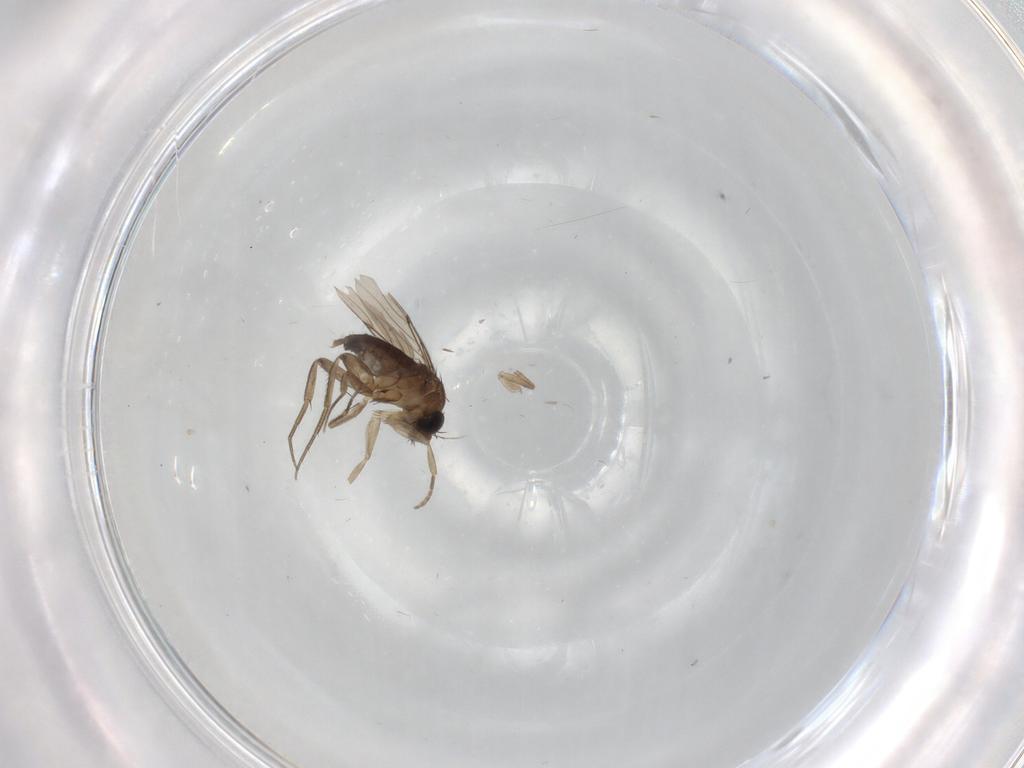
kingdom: Animalia
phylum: Arthropoda
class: Insecta
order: Diptera
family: Phoridae
